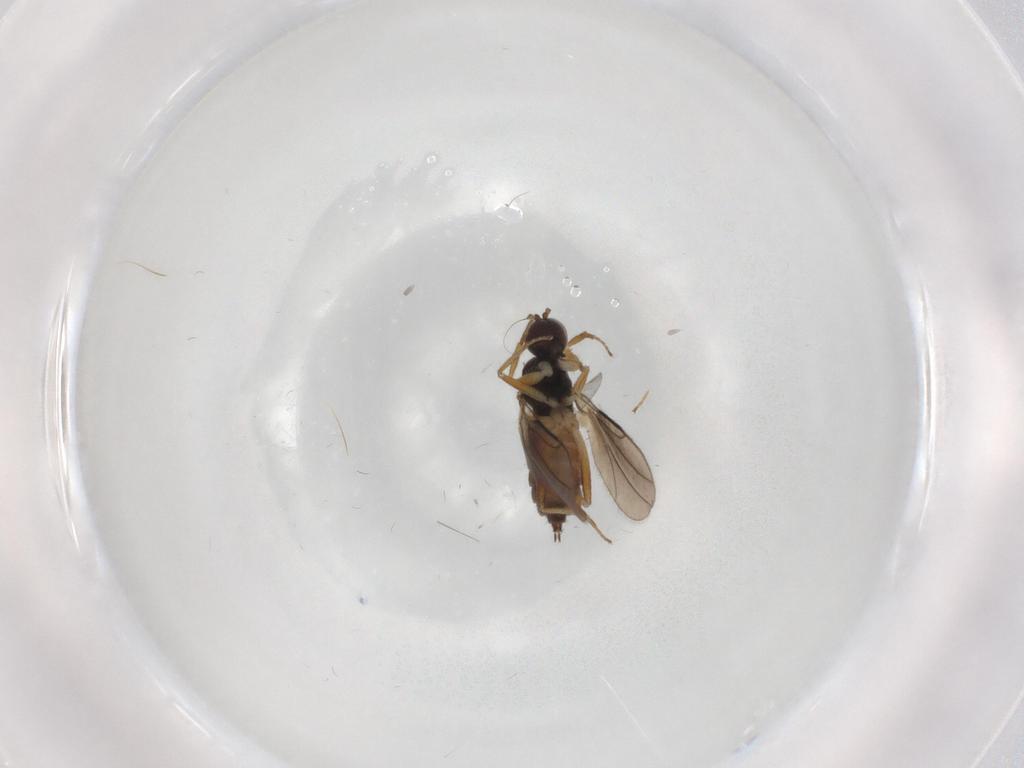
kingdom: Animalia
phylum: Arthropoda
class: Insecta
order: Diptera
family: Hybotidae
